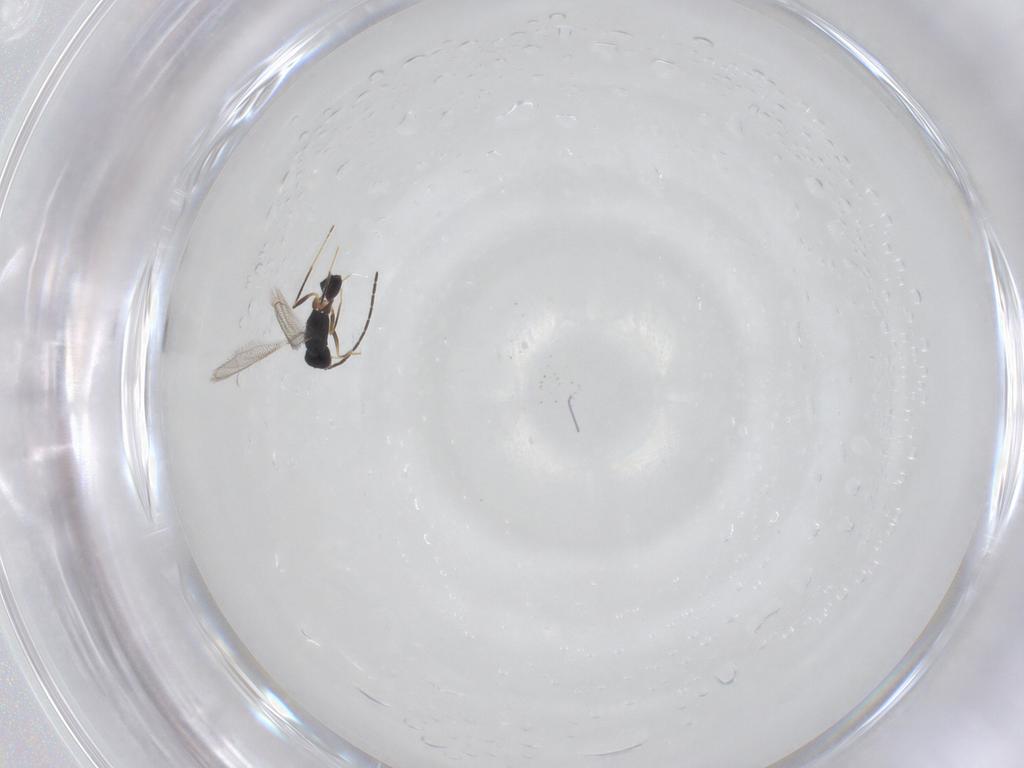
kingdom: Animalia
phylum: Arthropoda
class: Insecta
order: Hymenoptera
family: Mymaridae
